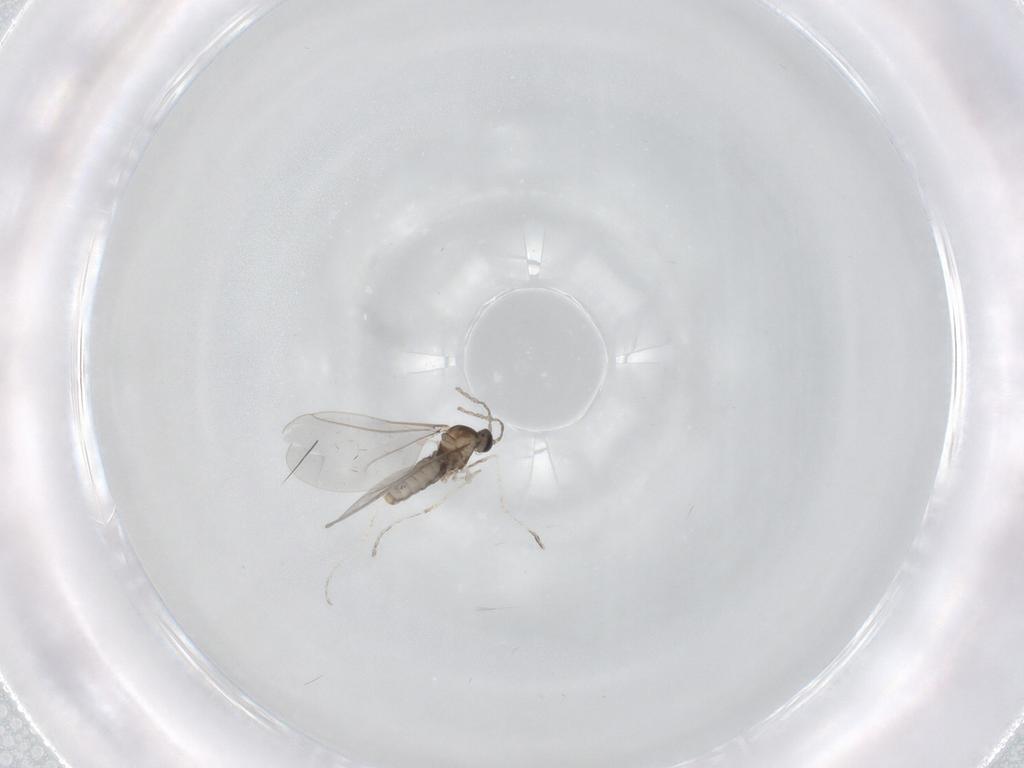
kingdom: Animalia
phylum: Arthropoda
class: Insecta
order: Diptera
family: Cecidomyiidae
